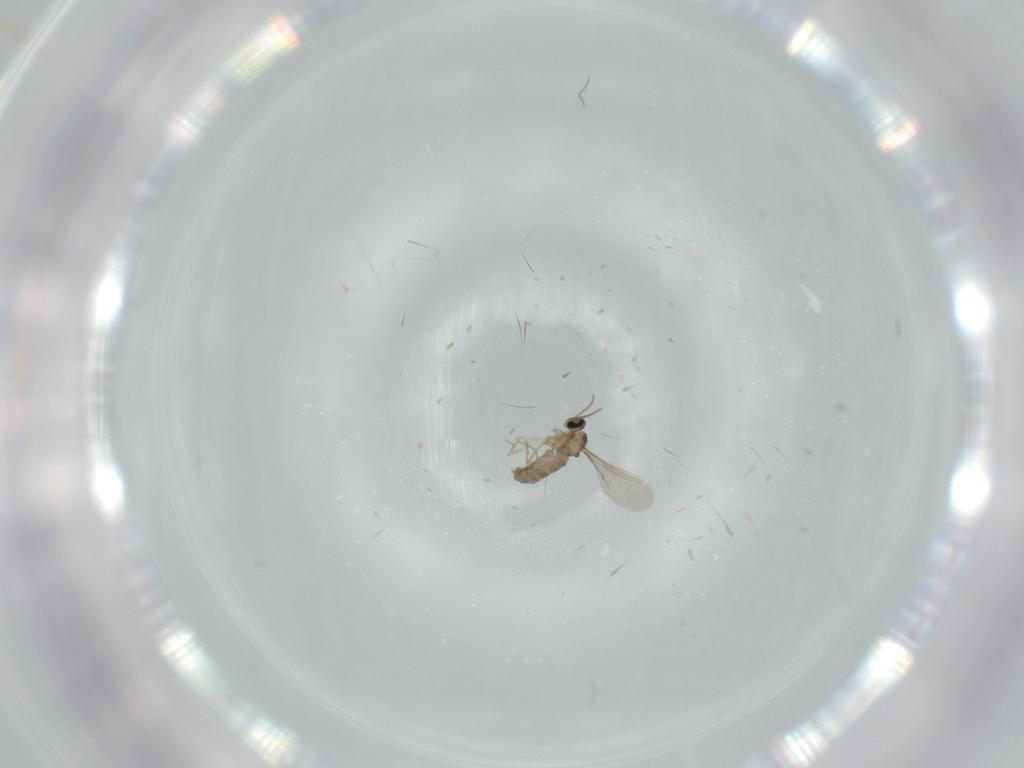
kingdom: Animalia
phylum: Arthropoda
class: Insecta
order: Diptera
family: Cecidomyiidae
